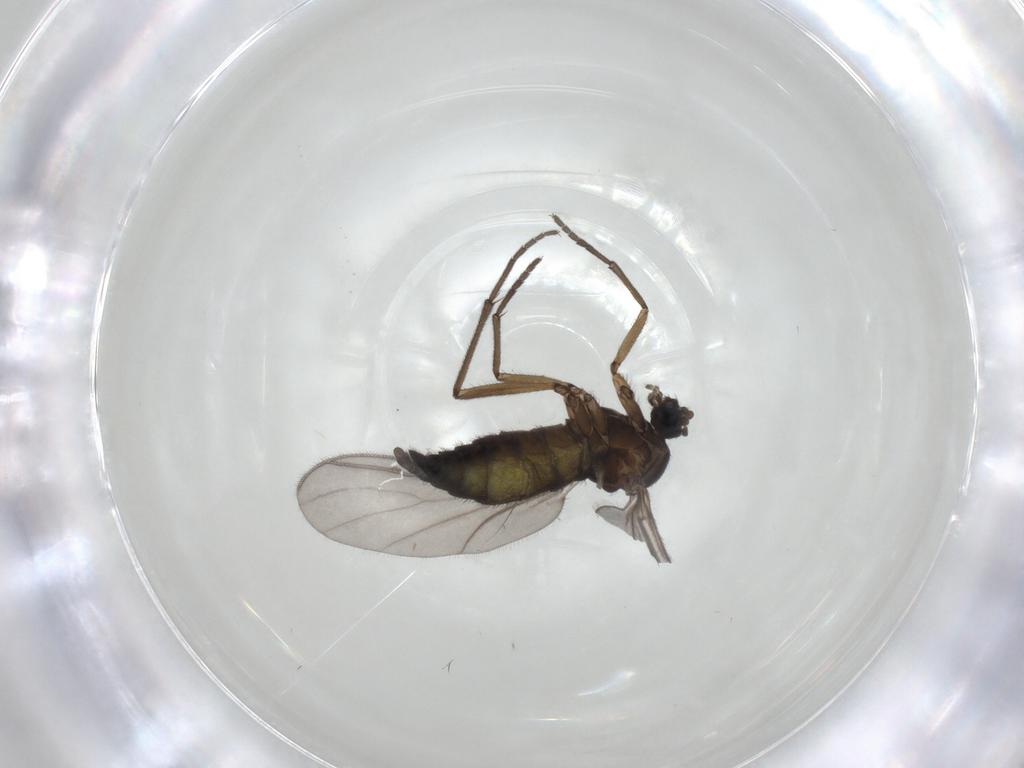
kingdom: Animalia
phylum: Arthropoda
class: Insecta
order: Diptera
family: Sciaridae
